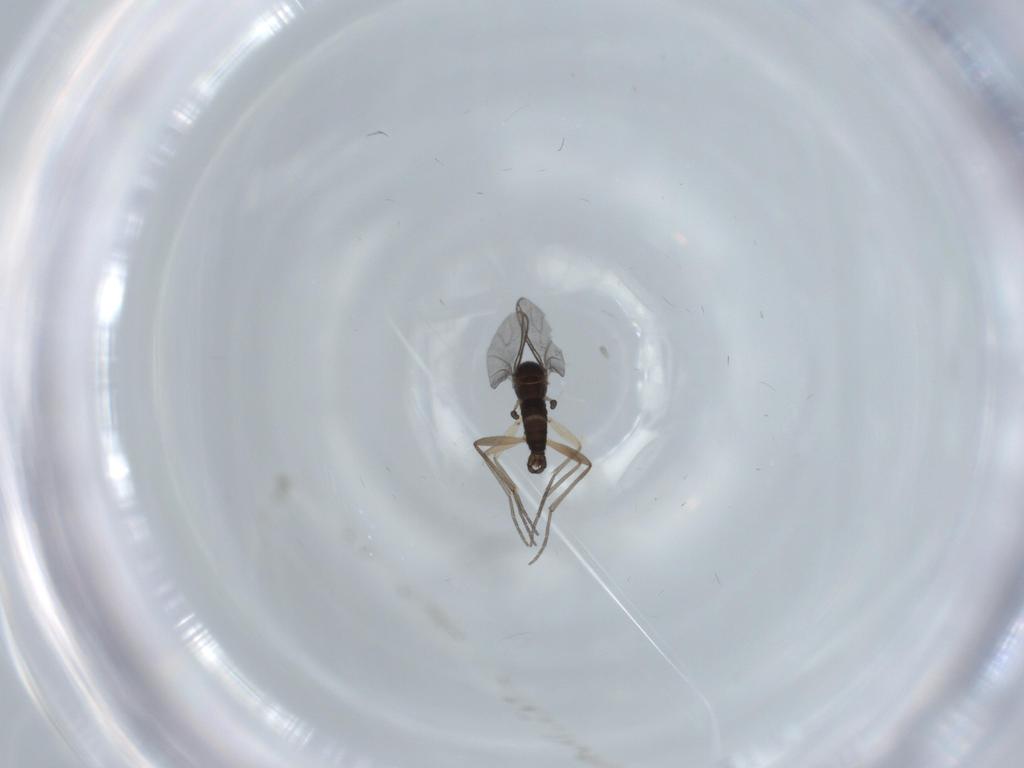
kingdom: Animalia
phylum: Arthropoda
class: Insecta
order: Diptera
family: Sciaridae
